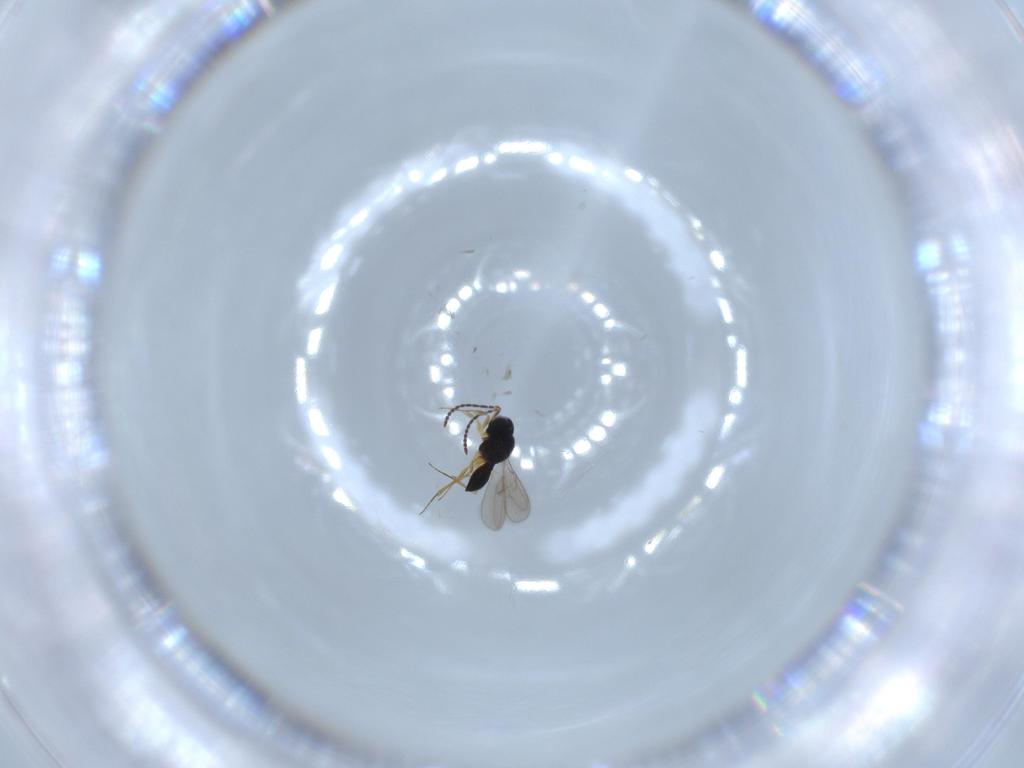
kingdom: Animalia
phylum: Arthropoda
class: Insecta
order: Hymenoptera
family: Scelionidae
